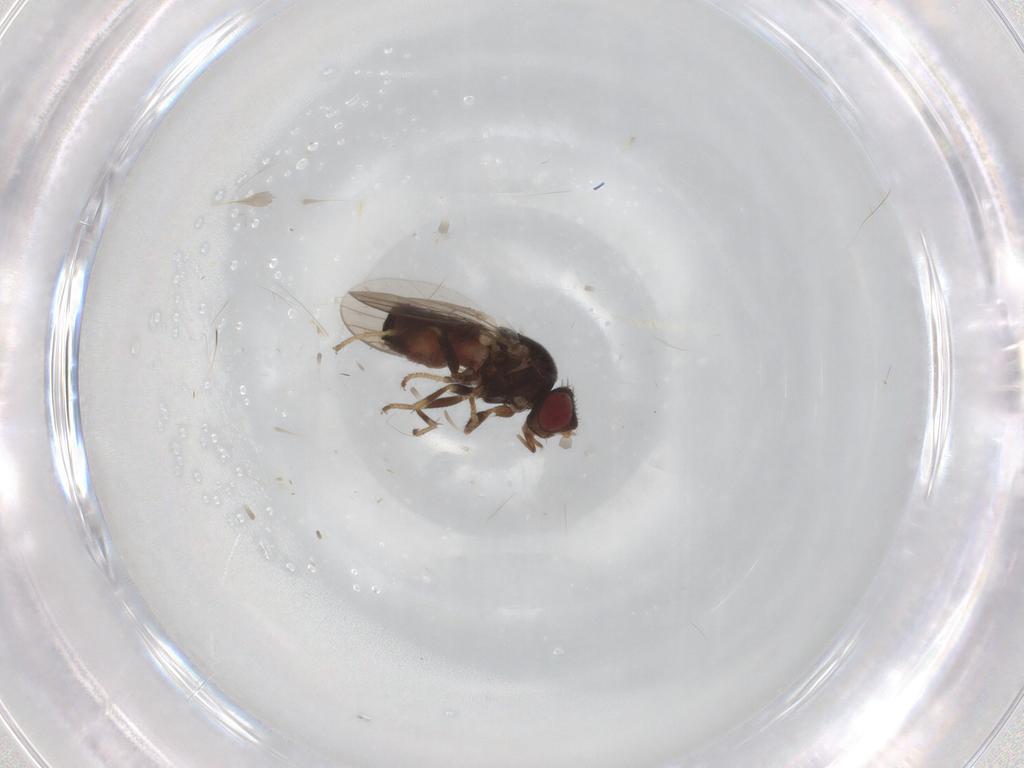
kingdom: Animalia
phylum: Arthropoda
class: Insecta
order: Diptera
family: Chloropidae
